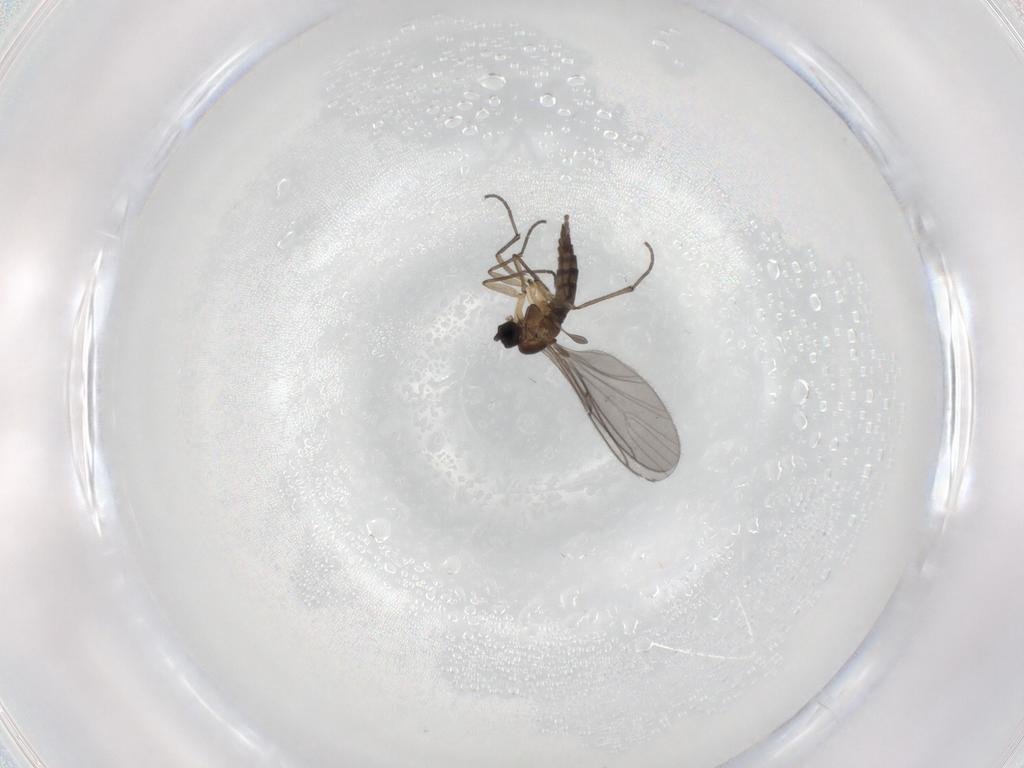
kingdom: Animalia
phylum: Arthropoda
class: Insecta
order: Diptera
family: Sciaridae
